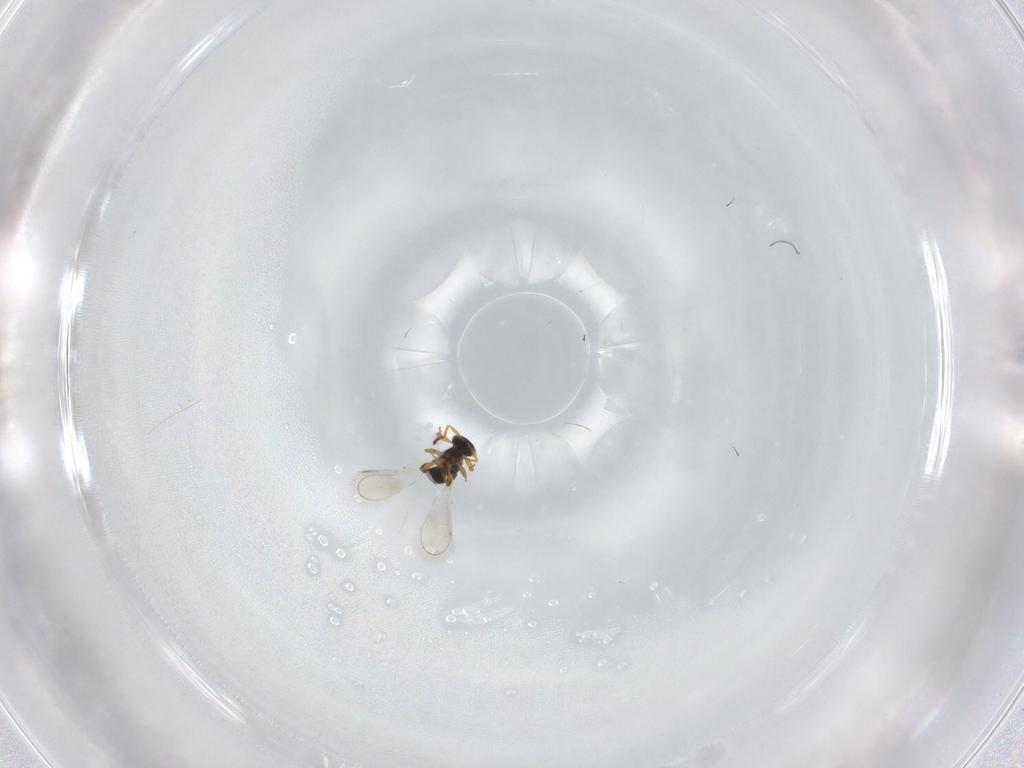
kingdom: Animalia
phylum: Arthropoda
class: Insecta
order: Hymenoptera
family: Platygastridae
